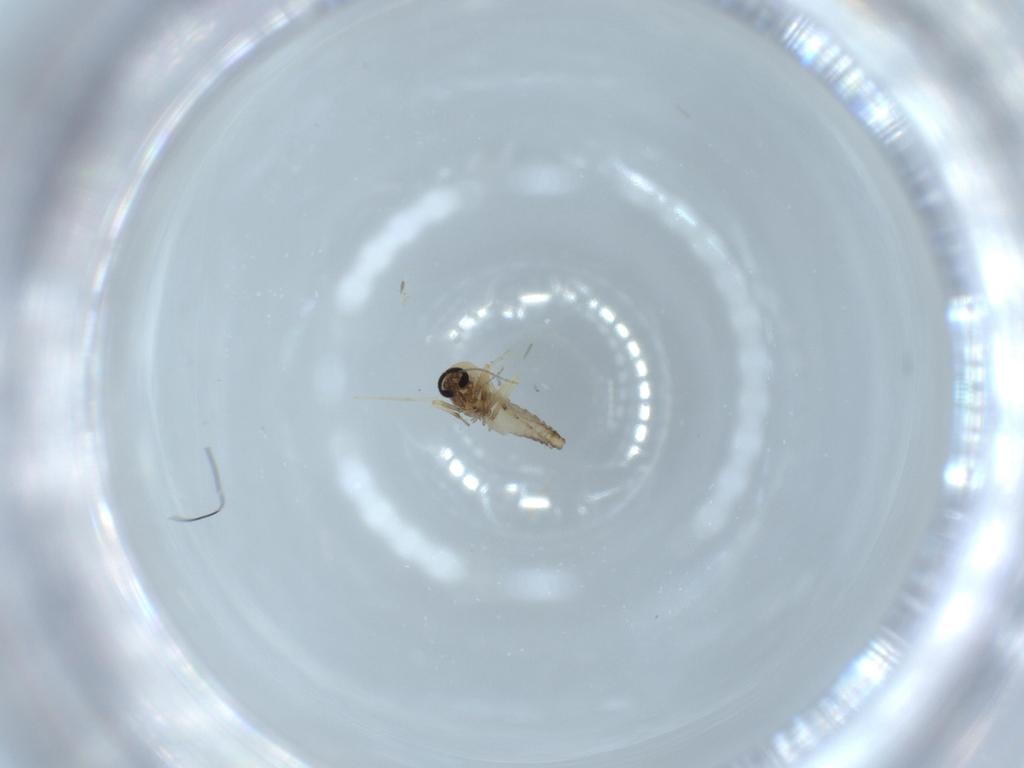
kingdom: Animalia
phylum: Arthropoda
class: Insecta
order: Diptera
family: Ceratopogonidae
